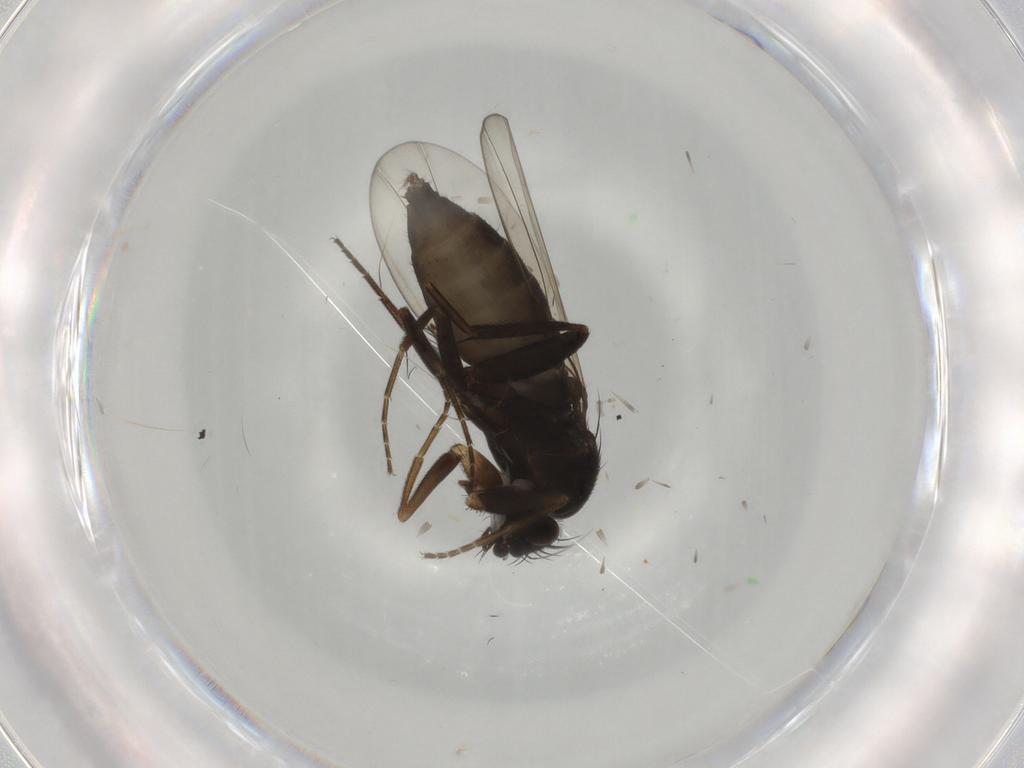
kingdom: Animalia
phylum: Arthropoda
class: Insecta
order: Diptera
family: Phoridae
